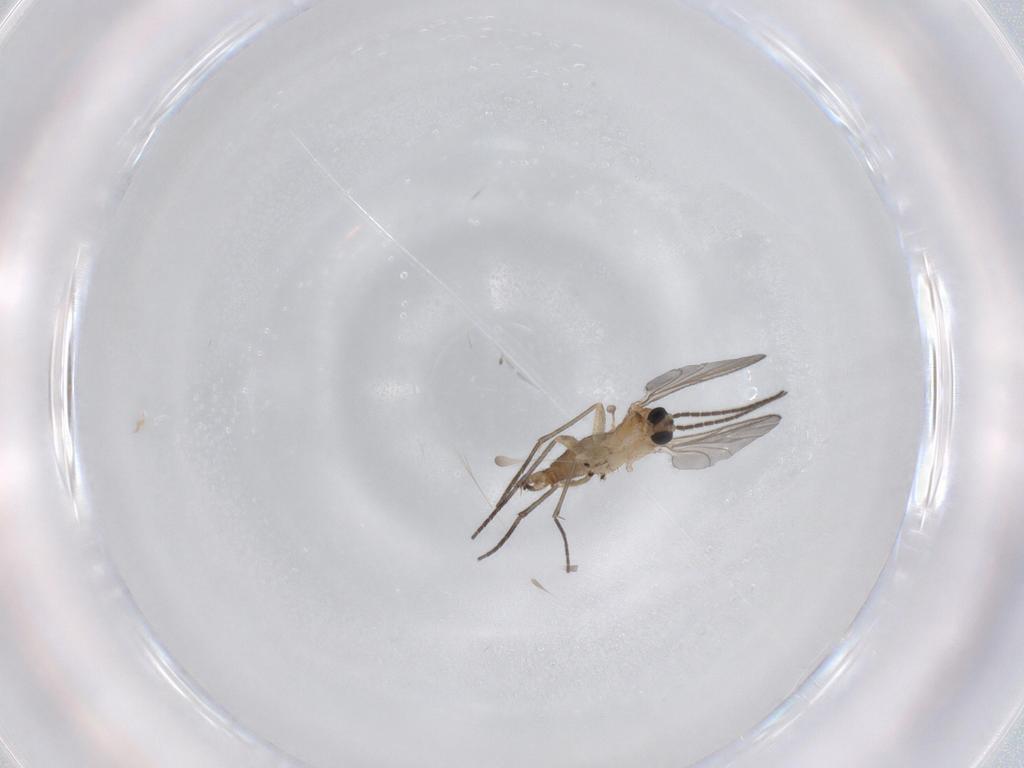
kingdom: Animalia
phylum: Arthropoda
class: Insecta
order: Diptera
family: Sciaridae
